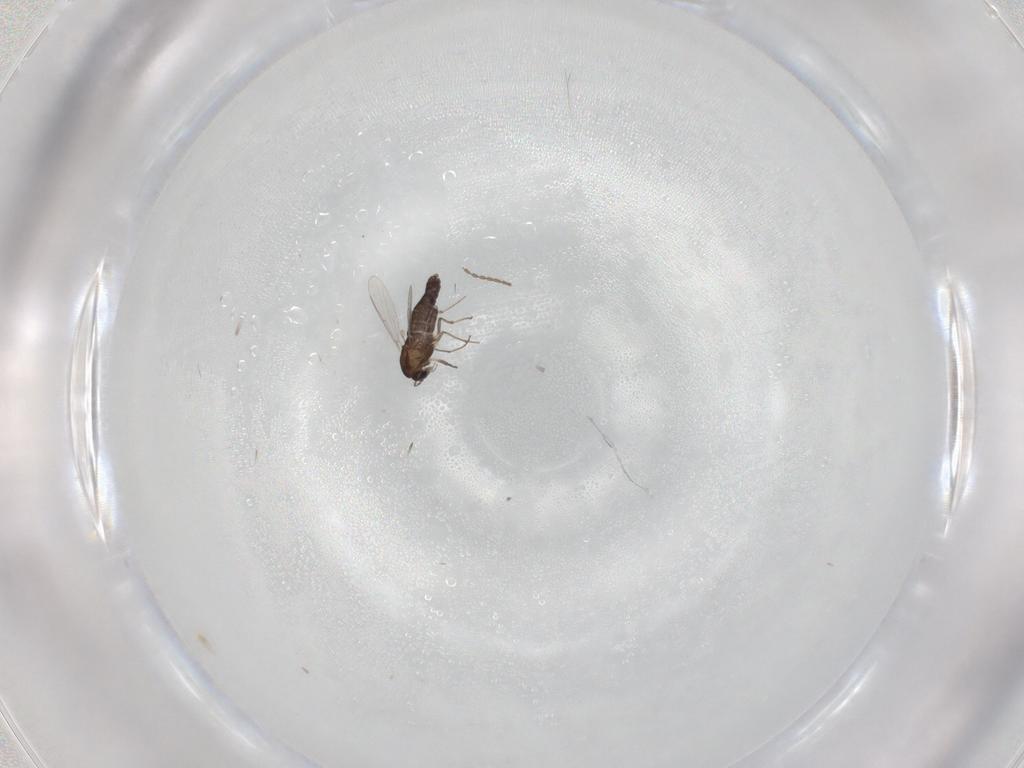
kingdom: Animalia
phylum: Arthropoda
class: Insecta
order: Diptera
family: Chironomidae
